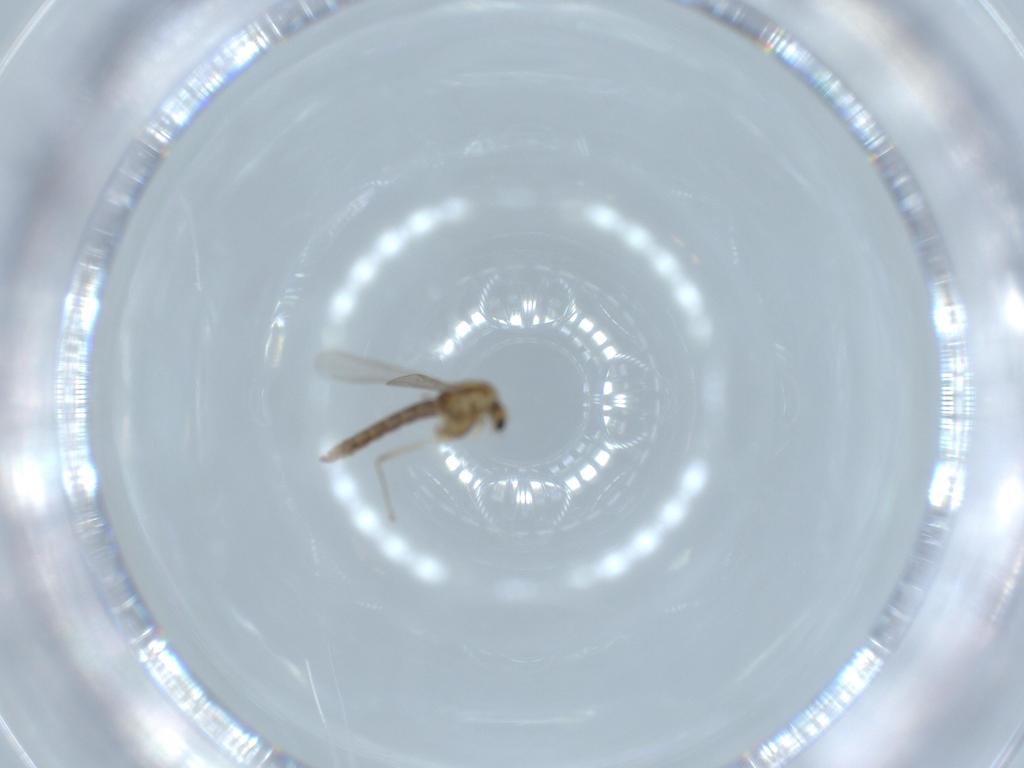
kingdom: Animalia
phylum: Arthropoda
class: Insecta
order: Diptera
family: Chironomidae
